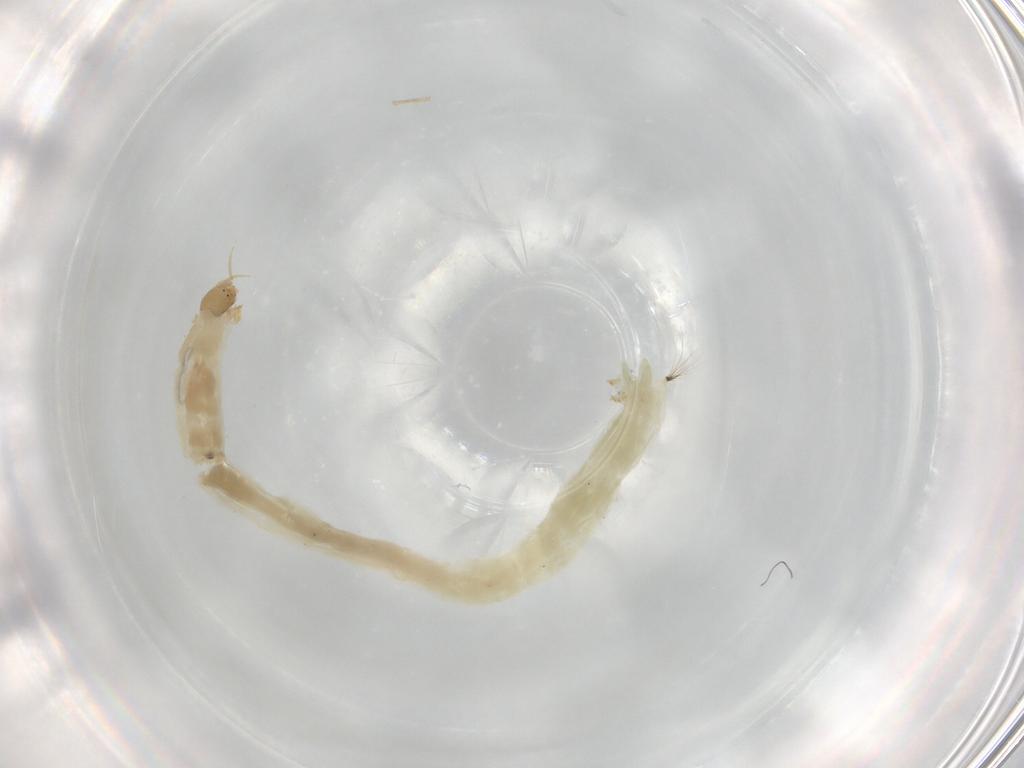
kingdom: Animalia
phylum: Arthropoda
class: Insecta
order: Diptera
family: Chironomidae
